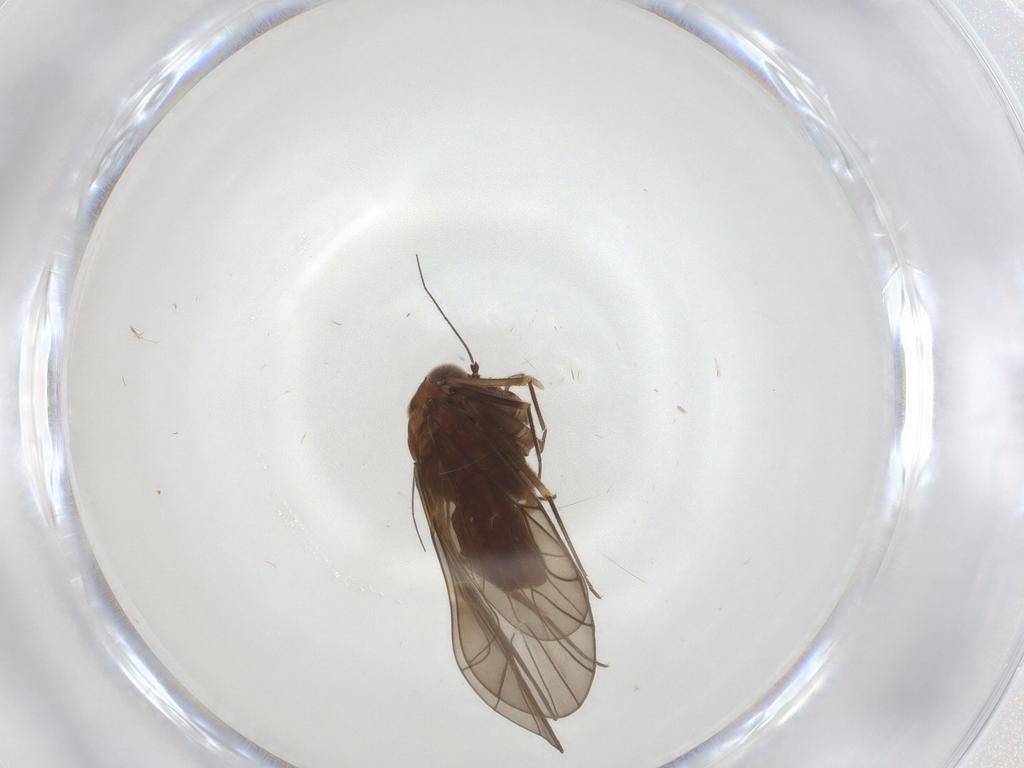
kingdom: Animalia
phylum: Arthropoda
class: Insecta
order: Psocodea
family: Philotarsidae
